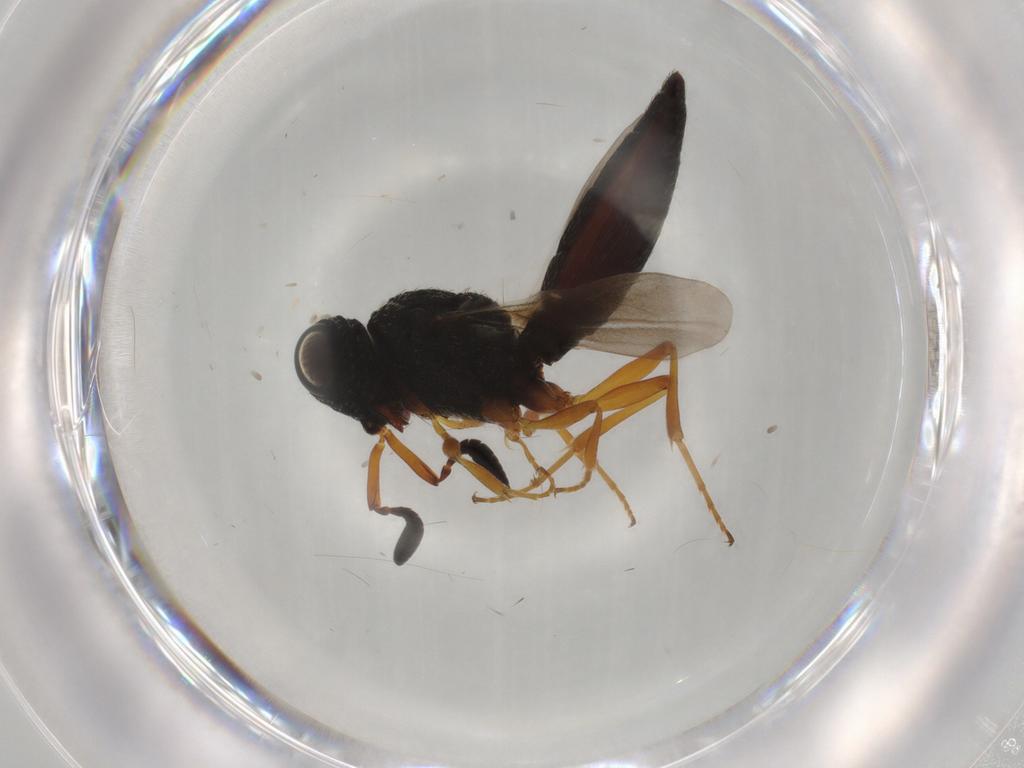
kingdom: Animalia
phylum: Arthropoda
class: Insecta
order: Hymenoptera
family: Scelionidae
